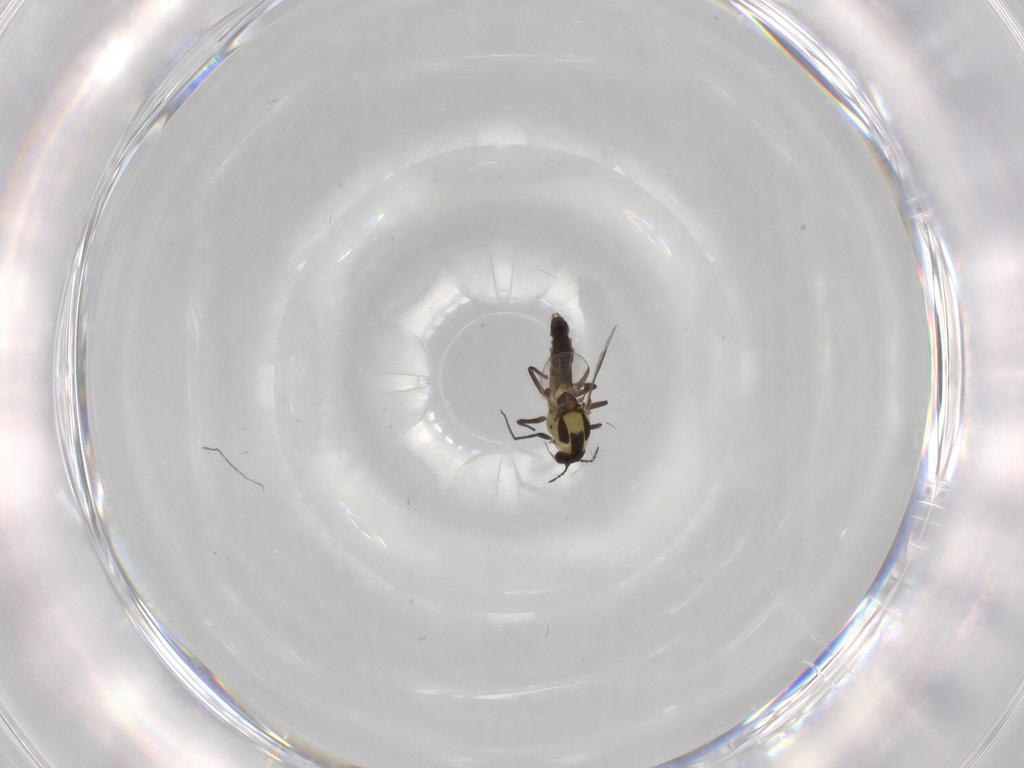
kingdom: Animalia
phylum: Arthropoda
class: Insecta
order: Diptera
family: Chironomidae
